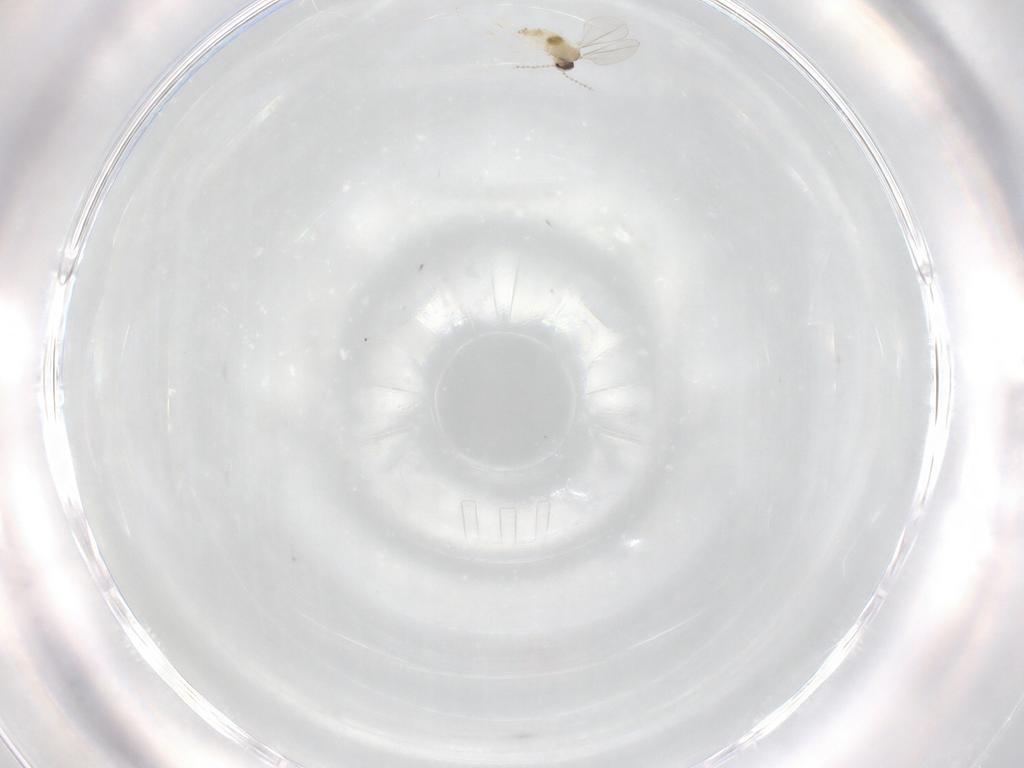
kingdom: Animalia
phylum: Arthropoda
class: Insecta
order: Diptera
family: Cecidomyiidae
